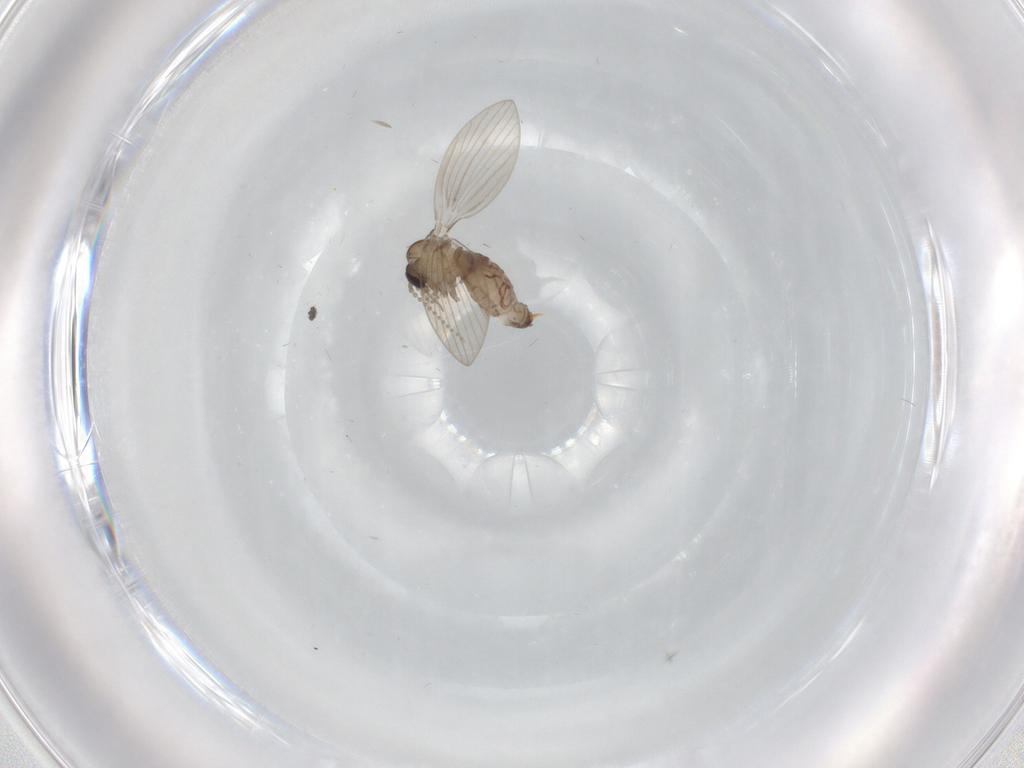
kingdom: Animalia
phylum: Arthropoda
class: Insecta
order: Diptera
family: Psychodidae
